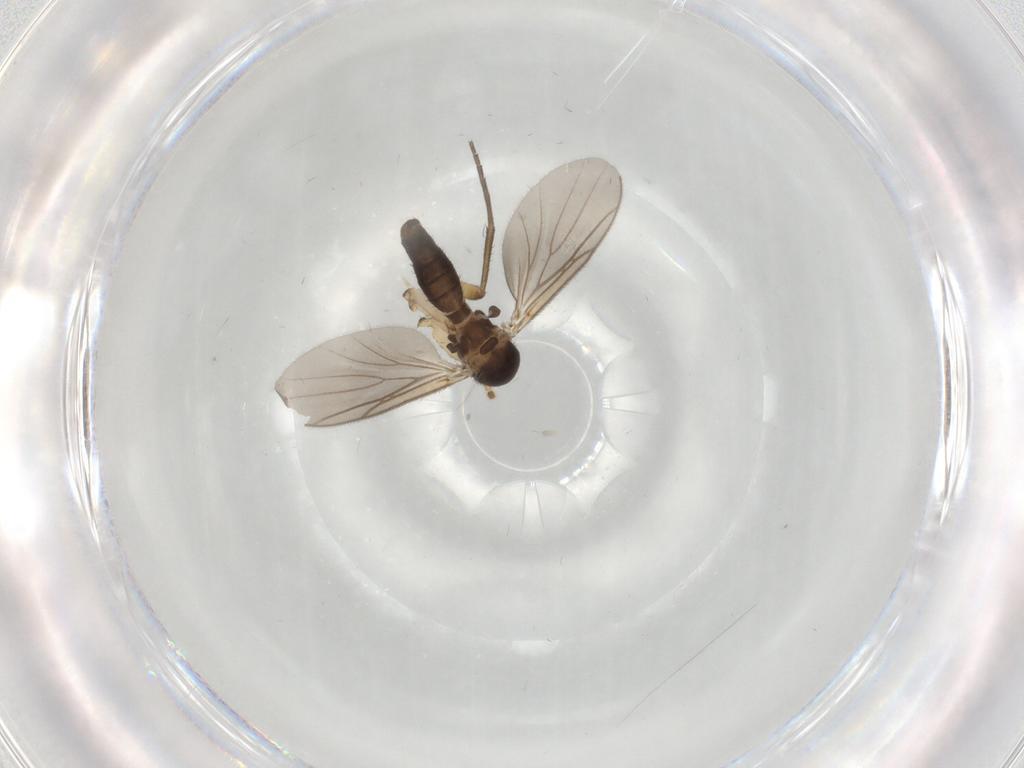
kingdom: Animalia
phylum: Arthropoda
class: Insecta
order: Diptera
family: Mycetophilidae
